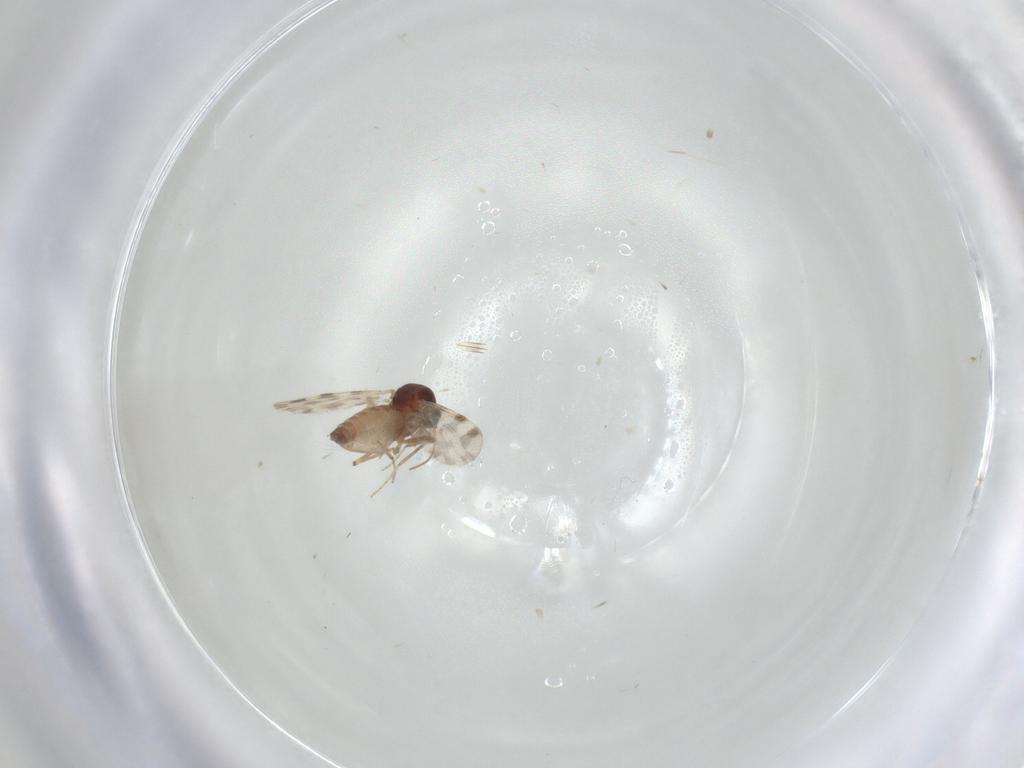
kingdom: Animalia
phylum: Arthropoda
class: Insecta
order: Diptera
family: Ceratopogonidae
